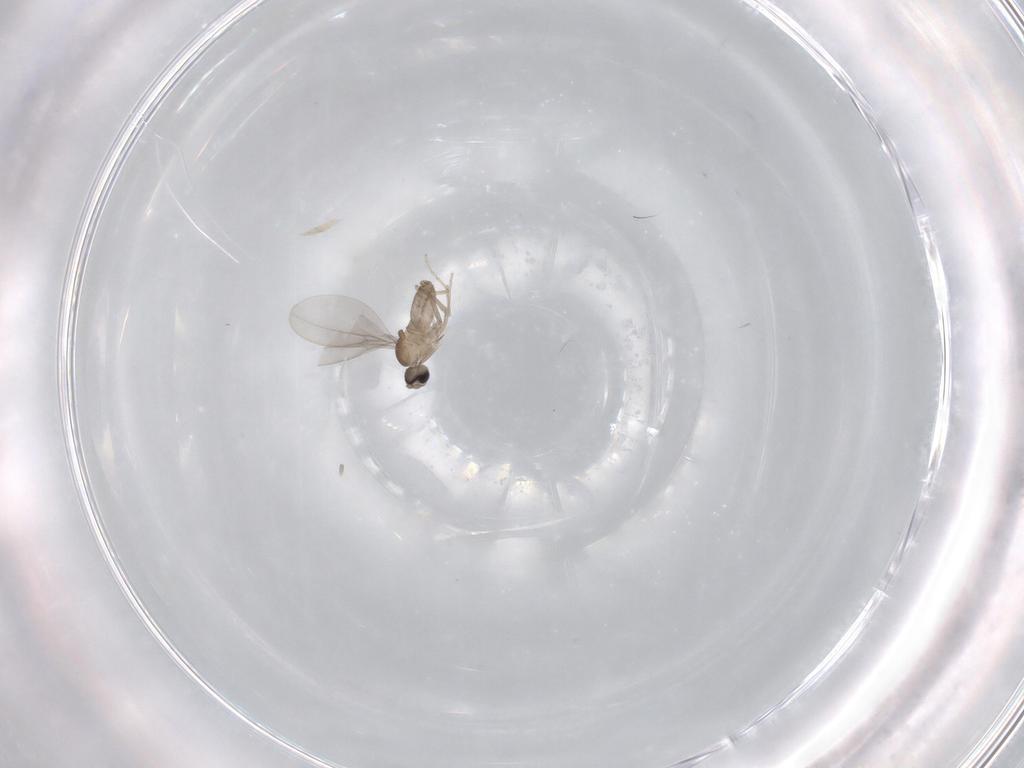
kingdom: Animalia
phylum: Arthropoda
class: Insecta
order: Diptera
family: Cecidomyiidae
